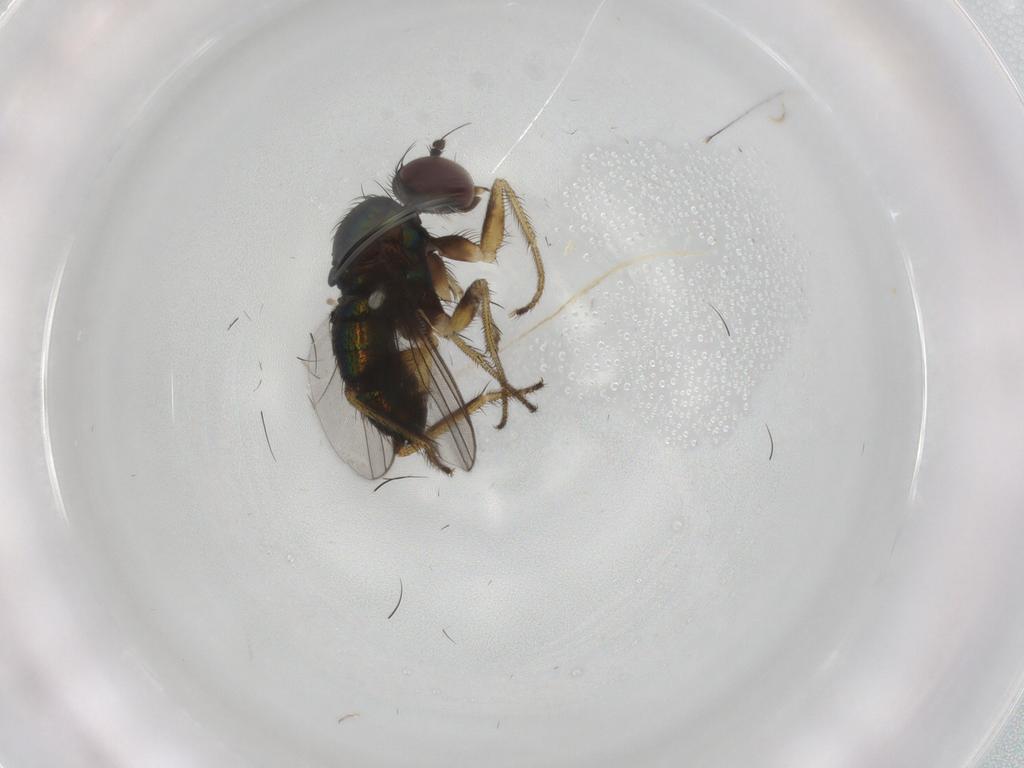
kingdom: Animalia
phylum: Arthropoda
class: Insecta
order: Diptera
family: Dolichopodidae
